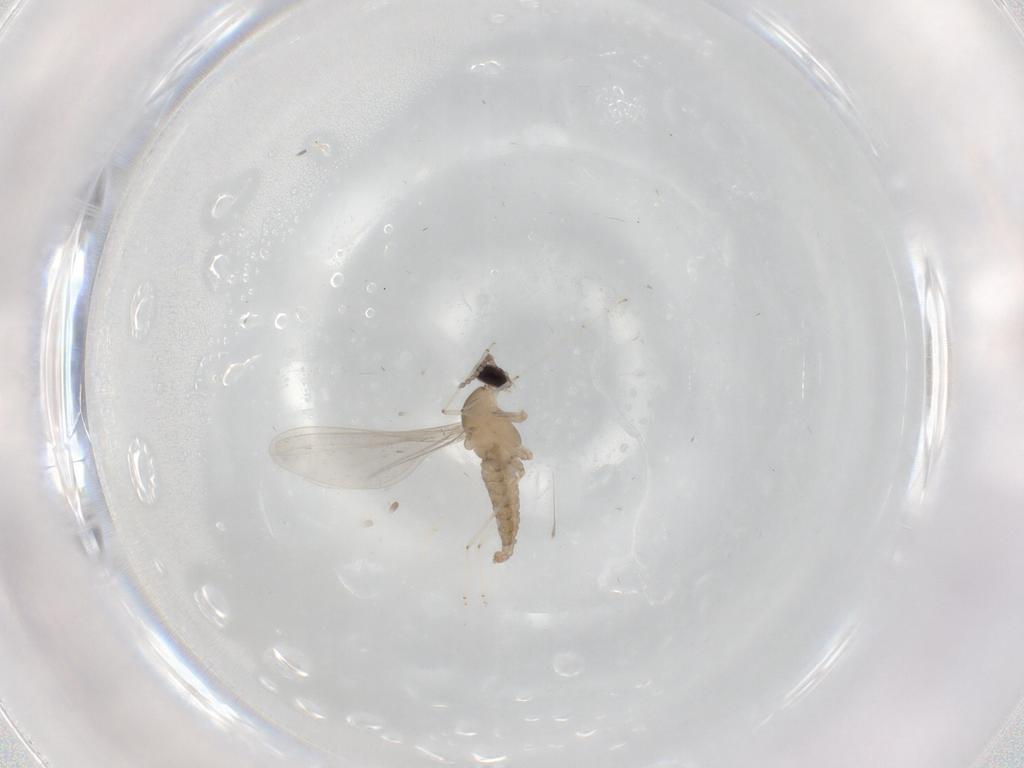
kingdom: Animalia
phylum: Arthropoda
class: Insecta
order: Diptera
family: Cecidomyiidae
